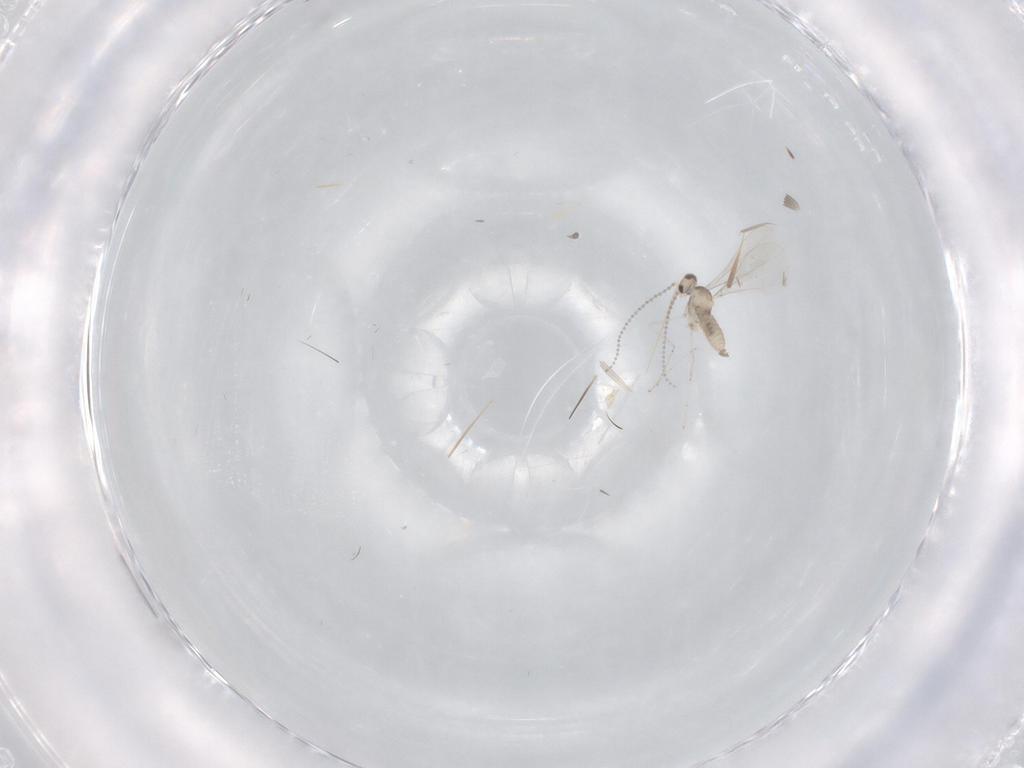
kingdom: Animalia
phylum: Arthropoda
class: Insecta
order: Diptera
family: Cecidomyiidae
